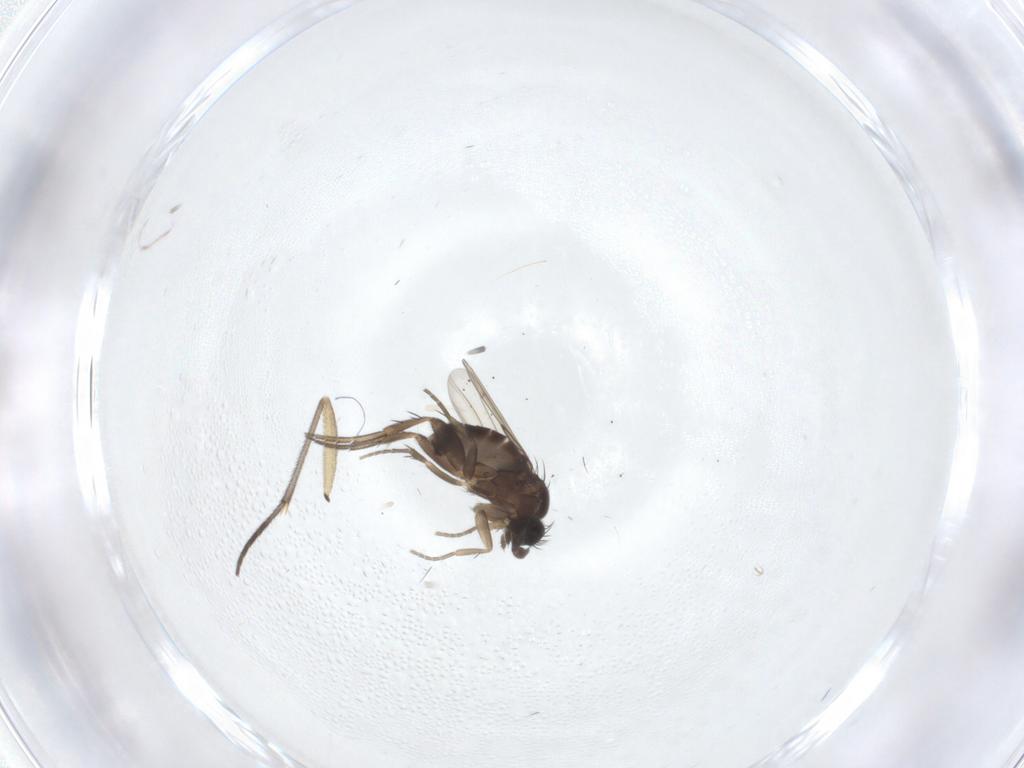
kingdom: Animalia
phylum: Arthropoda
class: Insecta
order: Diptera
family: Phoridae
